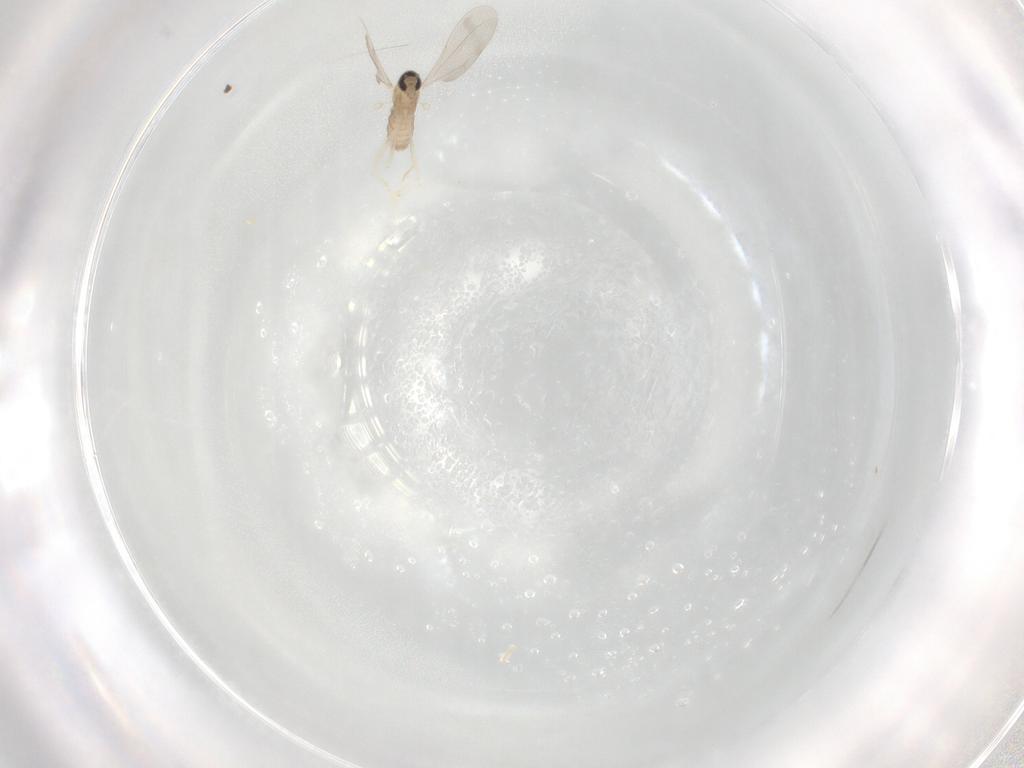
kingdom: Animalia
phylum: Arthropoda
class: Insecta
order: Diptera
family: Cecidomyiidae
